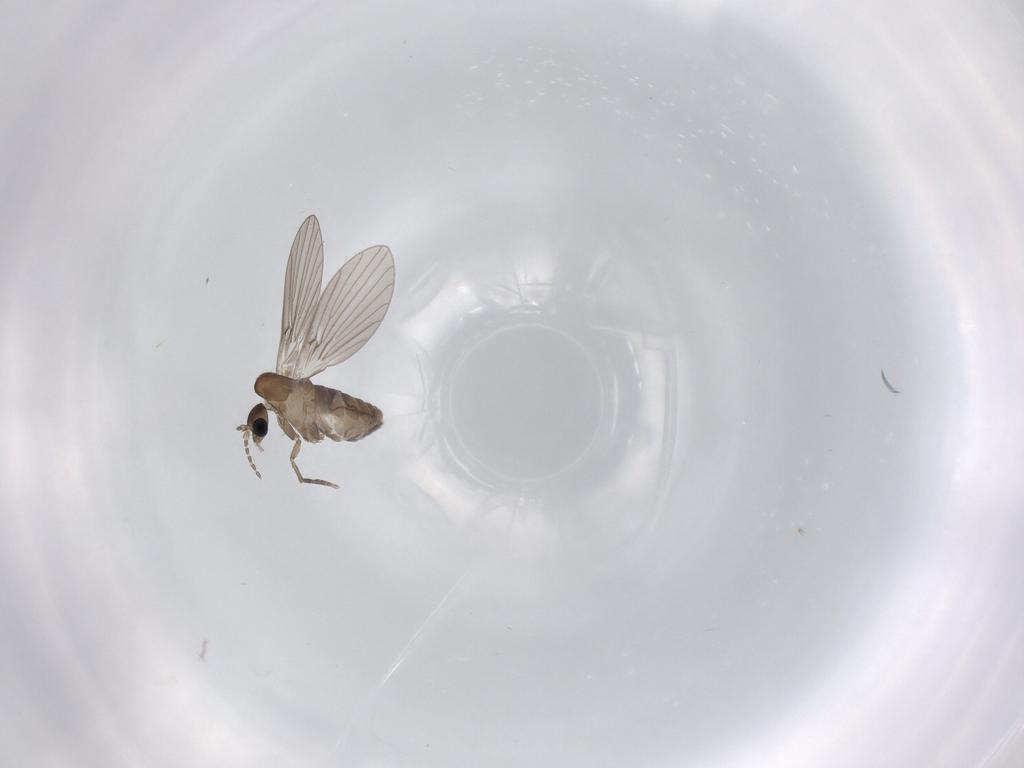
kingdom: Animalia
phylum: Arthropoda
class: Insecta
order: Diptera
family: Psychodidae
